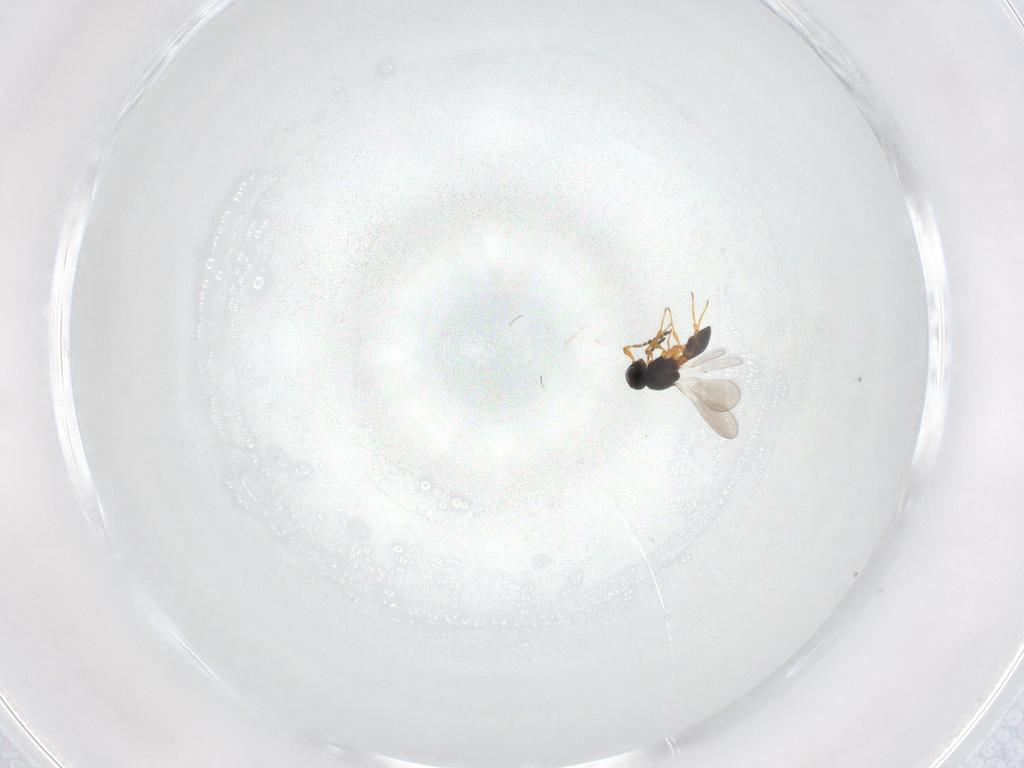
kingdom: Animalia
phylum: Arthropoda
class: Insecta
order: Hymenoptera
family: Platygastridae
